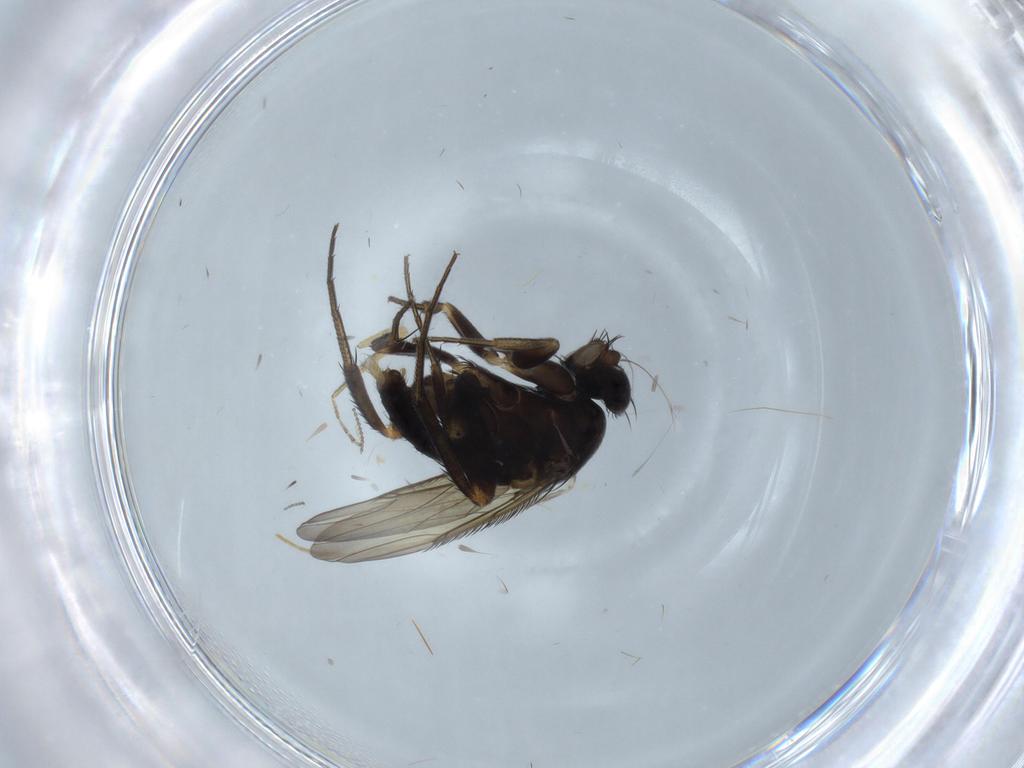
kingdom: Animalia
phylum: Arthropoda
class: Insecta
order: Diptera
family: Phoridae
